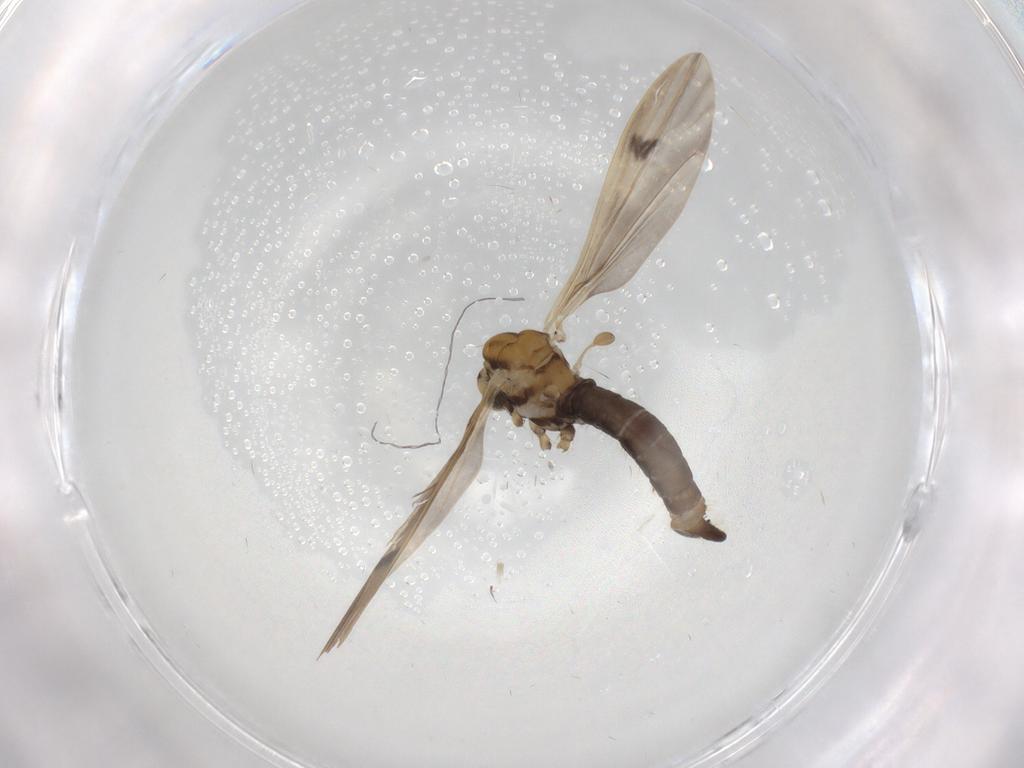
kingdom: Animalia
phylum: Arthropoda
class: Insecta
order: Diptera
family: Limoniidae
